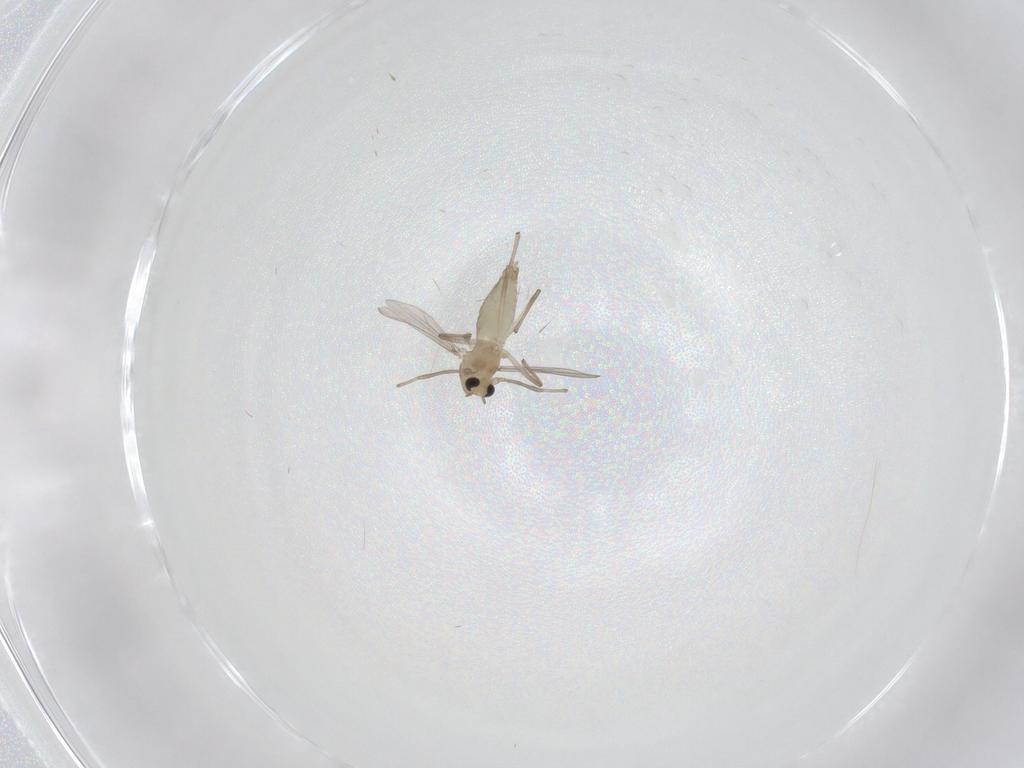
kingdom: Animalia
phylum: Arthropoda
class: Insecta
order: Diptera
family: Chironomidae
